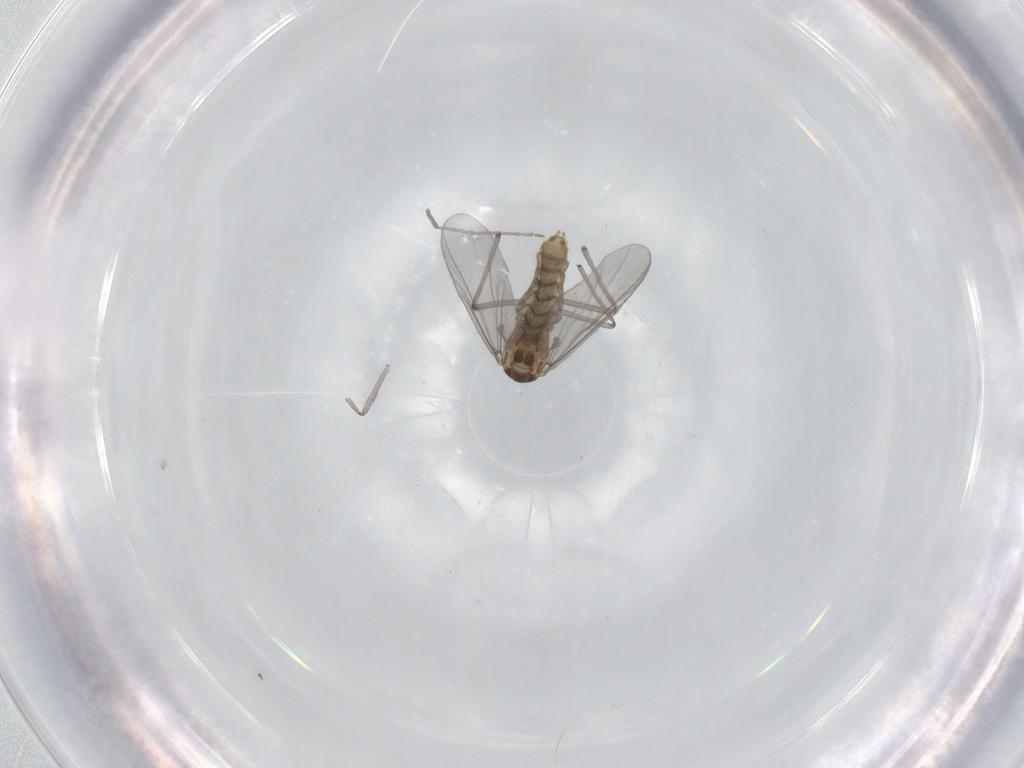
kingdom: Animalia
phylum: Arthropoda
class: Insecta
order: Diptera
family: Chironomidae
